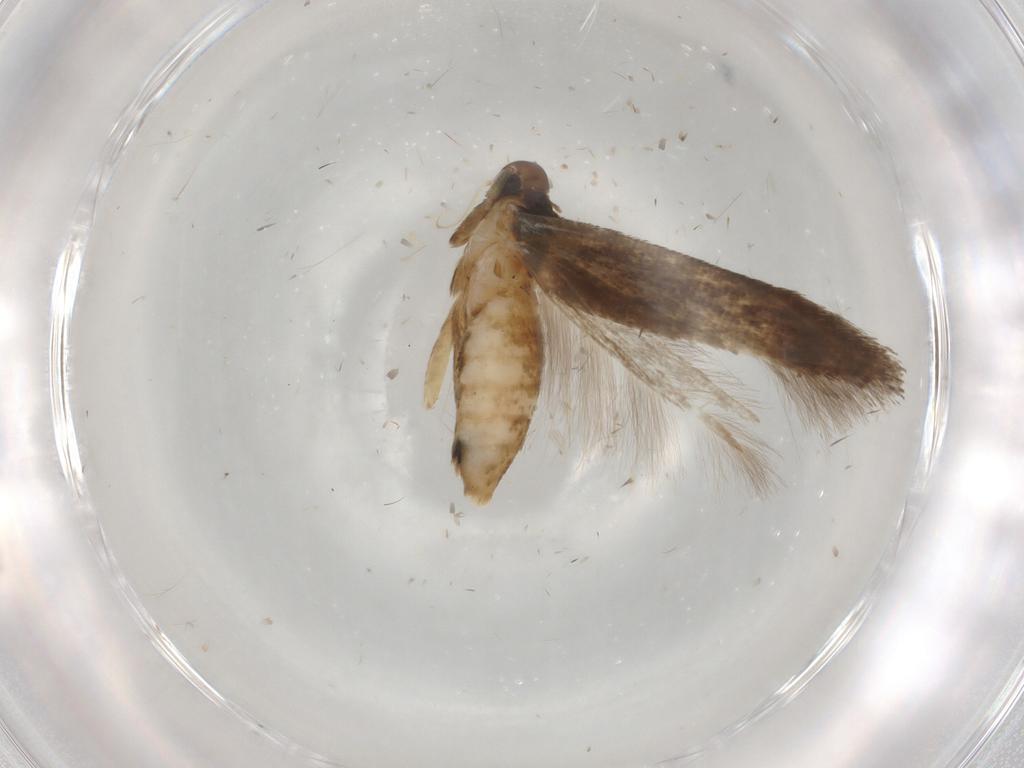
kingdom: Animalia
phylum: Arthropoda
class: Insecta
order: Lepidoptera
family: Cosmopterigidae
